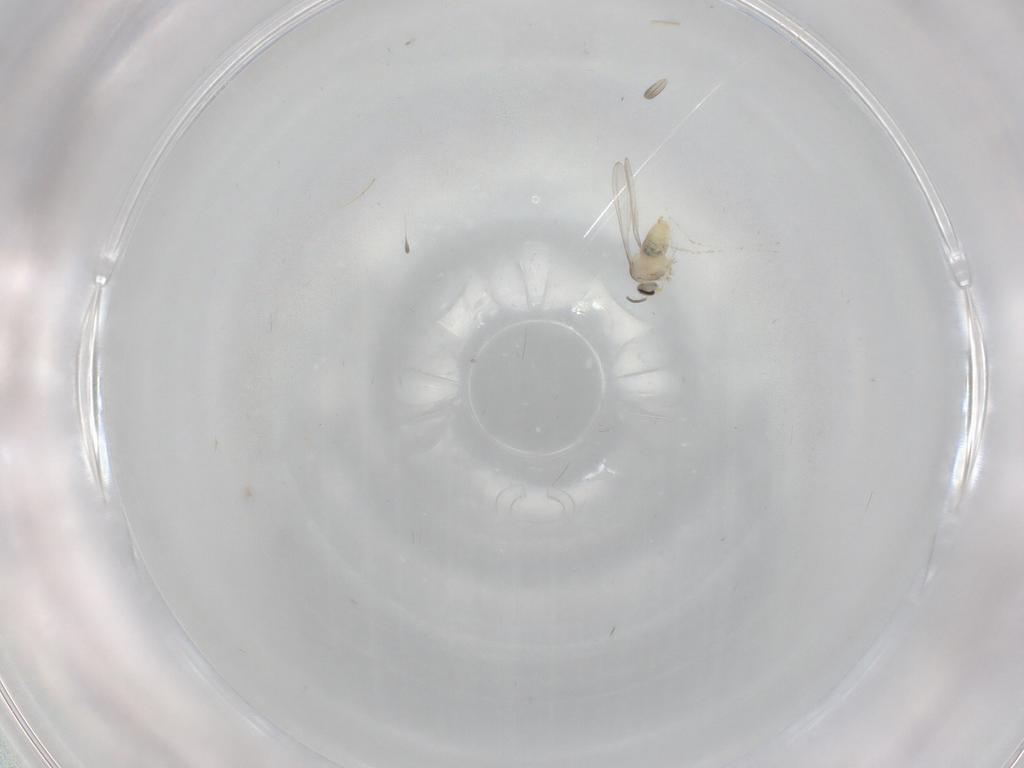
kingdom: Animalia
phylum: Arthropoda
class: Insecta
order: Diptera
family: Cecidomyiidae
